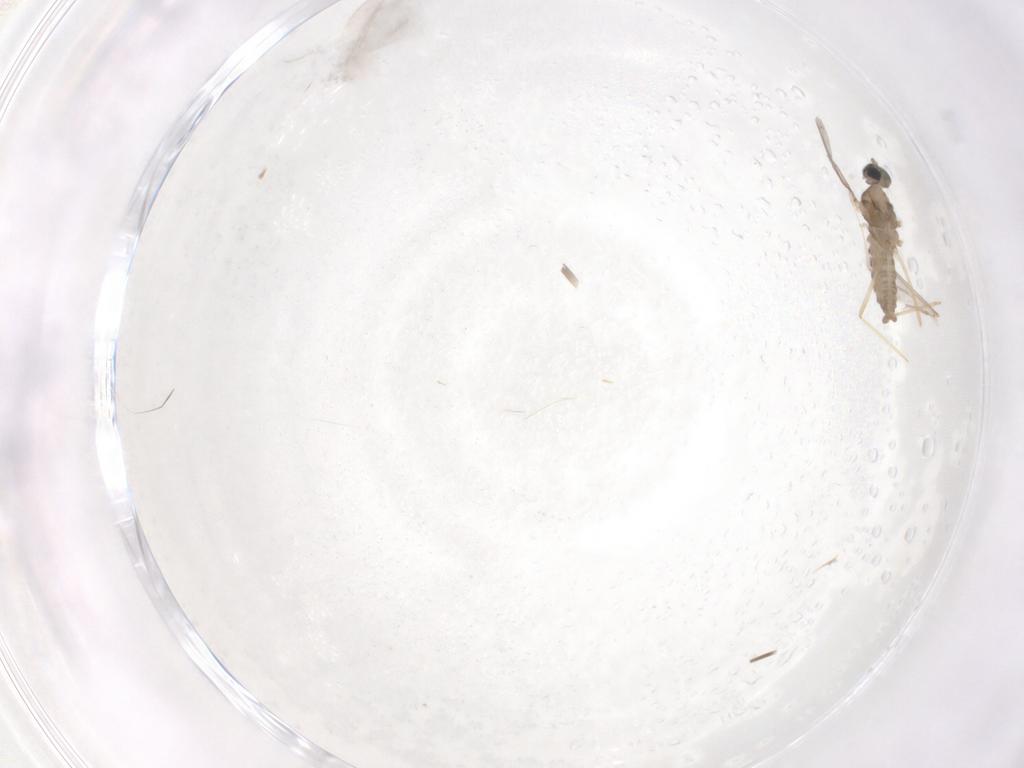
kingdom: Animalia
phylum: Arthropoda
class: Insecta
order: Diptera
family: Cecidomyiidae
